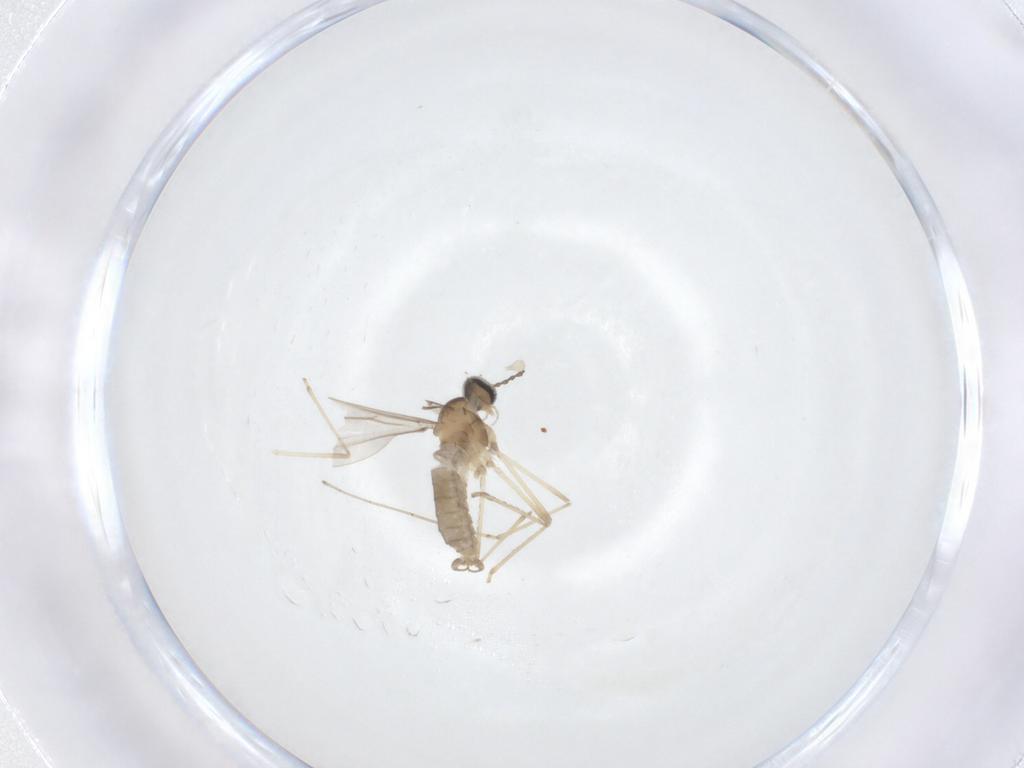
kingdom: Animalia
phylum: Arthropoda
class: Insecta
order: Diptera
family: Cecidomyiidae
